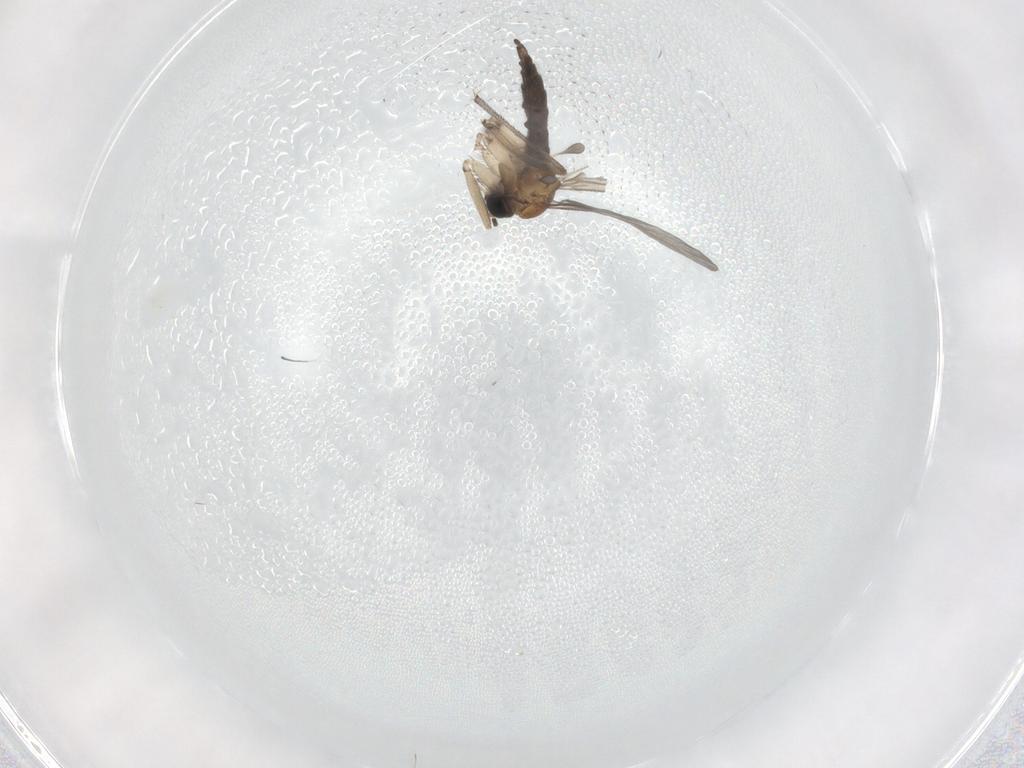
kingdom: Animalia
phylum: Arthropoda
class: Insecta
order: Diptera
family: Sciaridae
